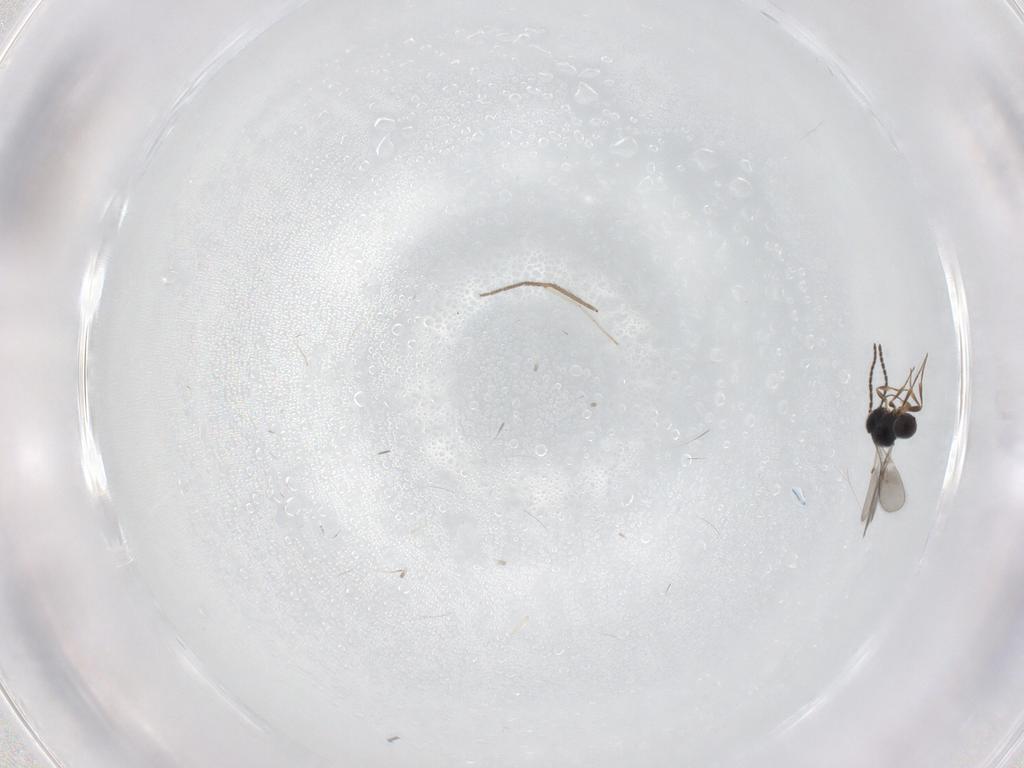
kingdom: Animalia
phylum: Arthropoda
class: Insecta
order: Hymenoptera
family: Scelionidae
